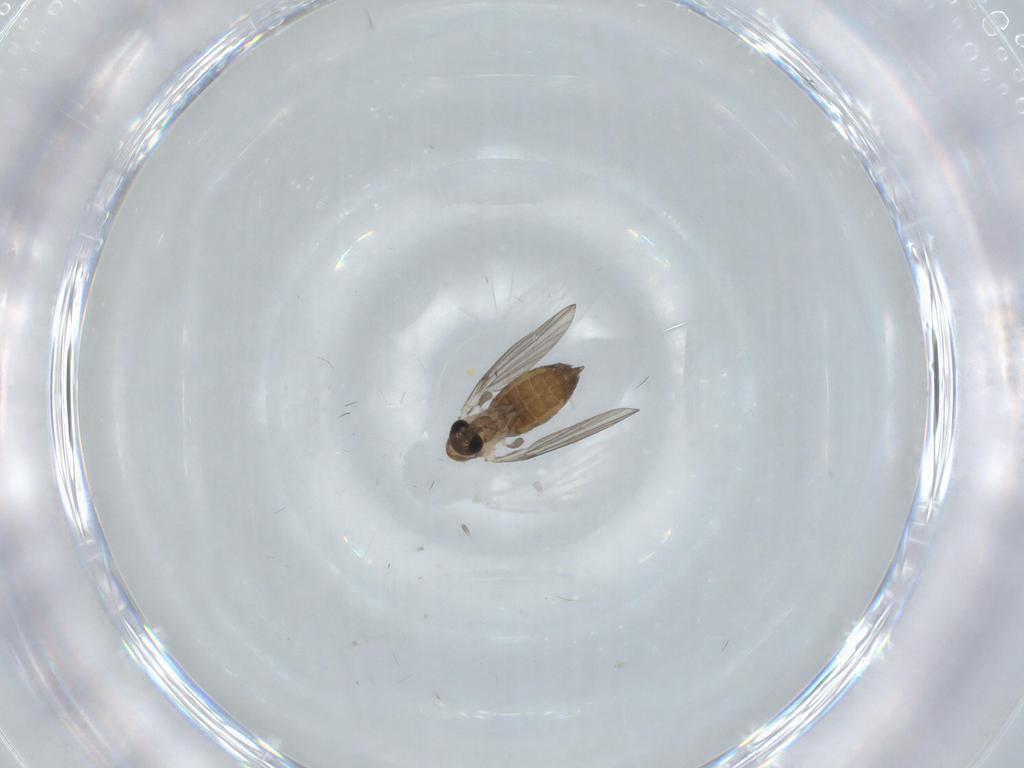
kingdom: Animalia
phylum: Arthropoda
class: Insecta
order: Diptera
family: Psychodidae
